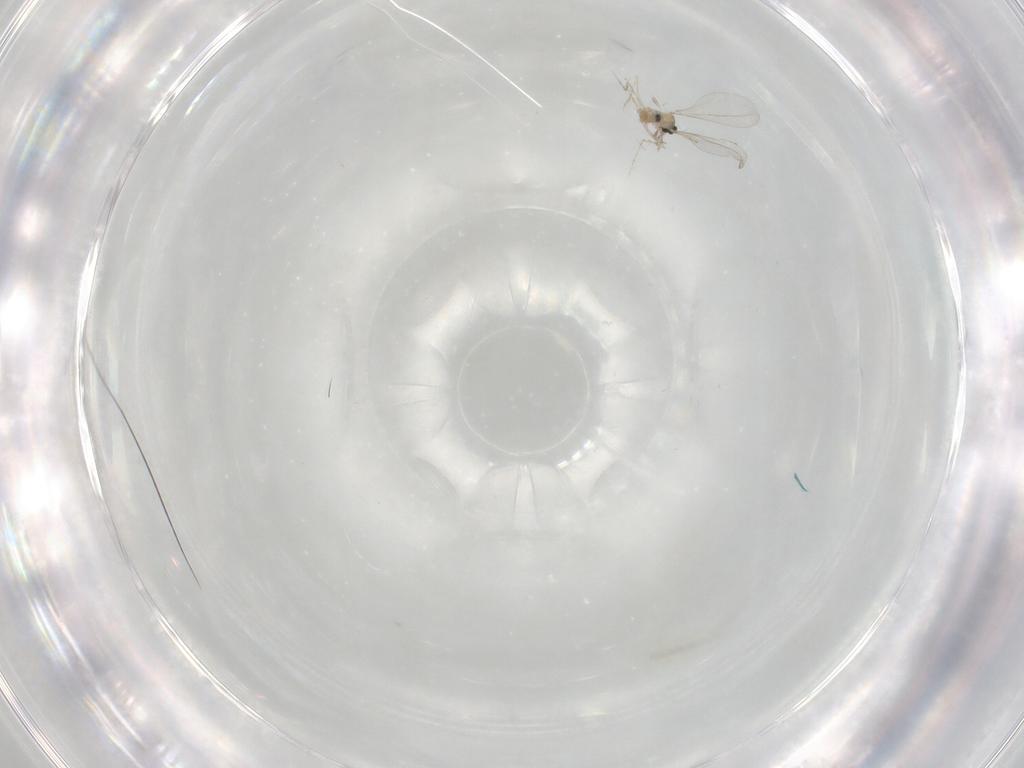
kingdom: Animalia
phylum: Arthropoda
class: Insecta
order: Diptera
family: Cecidomyiidae
